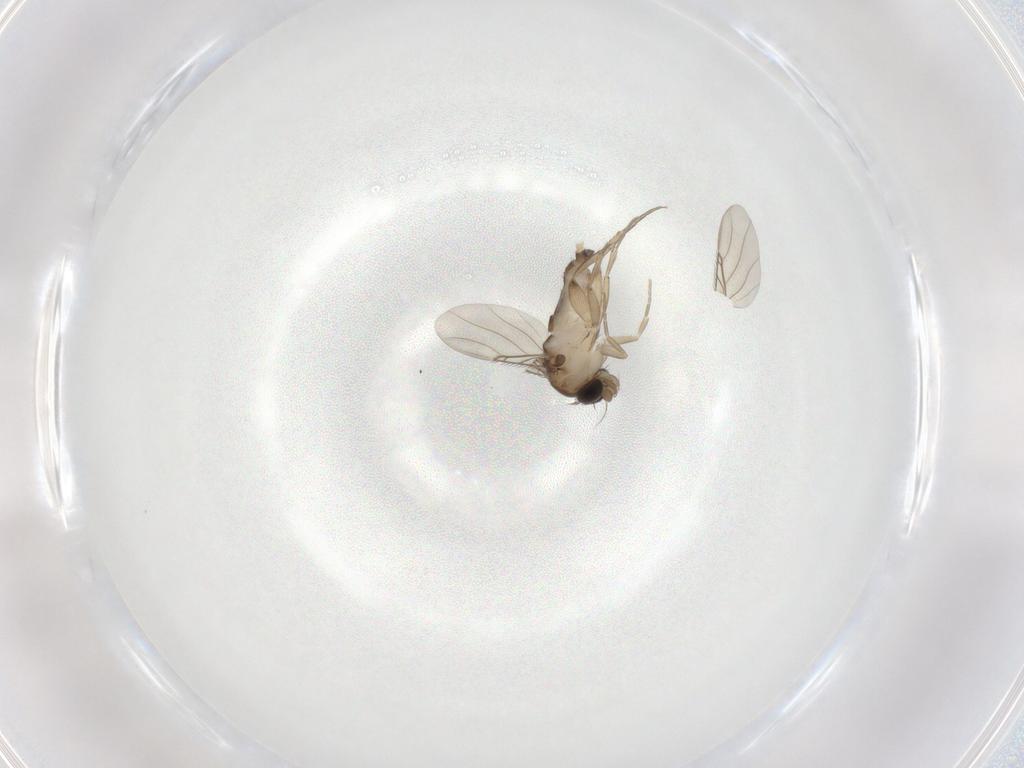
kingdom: Animalia
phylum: Arthropoda
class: Insecta
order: Diptera
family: Phoridae
